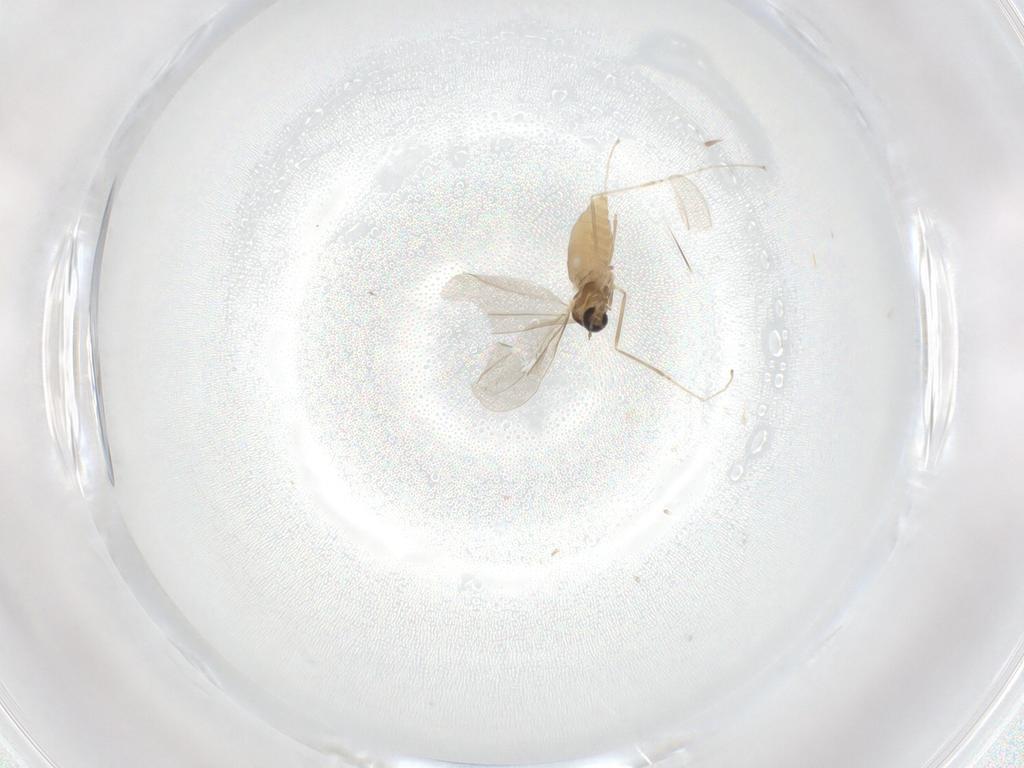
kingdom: Animalia
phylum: Arthropoda
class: Insecta
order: Diptera
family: Cecidomyiidae
